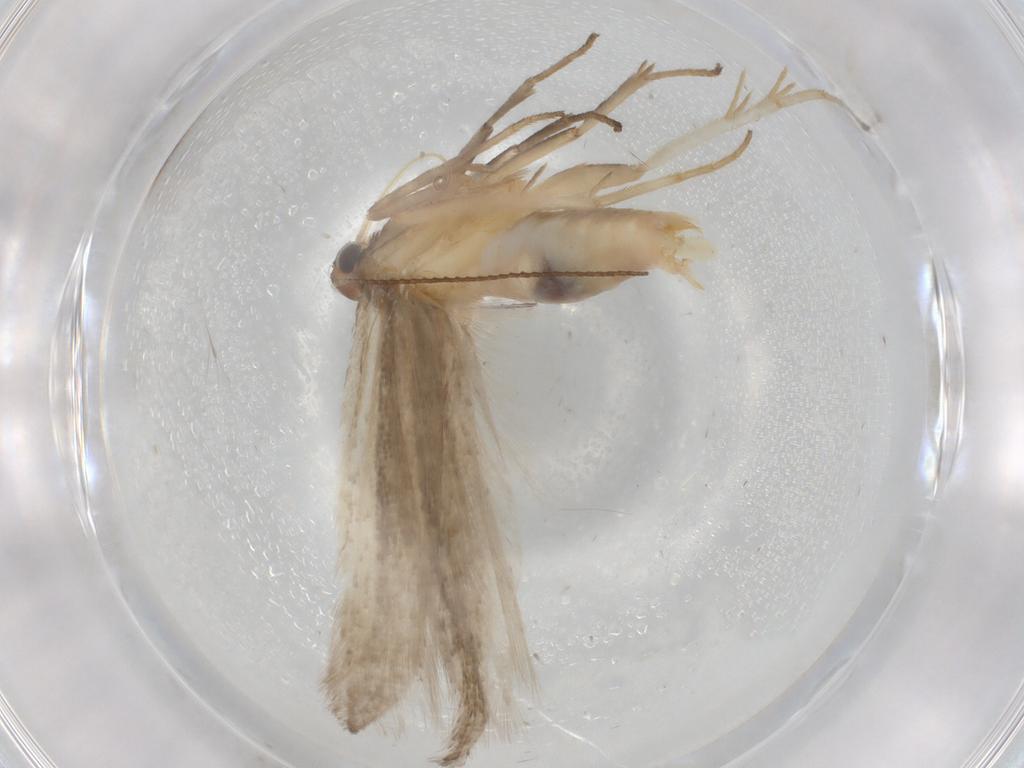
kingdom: Animalia
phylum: Arthropoda
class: Insecta
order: Lepidoptera
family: Gelechiidae
